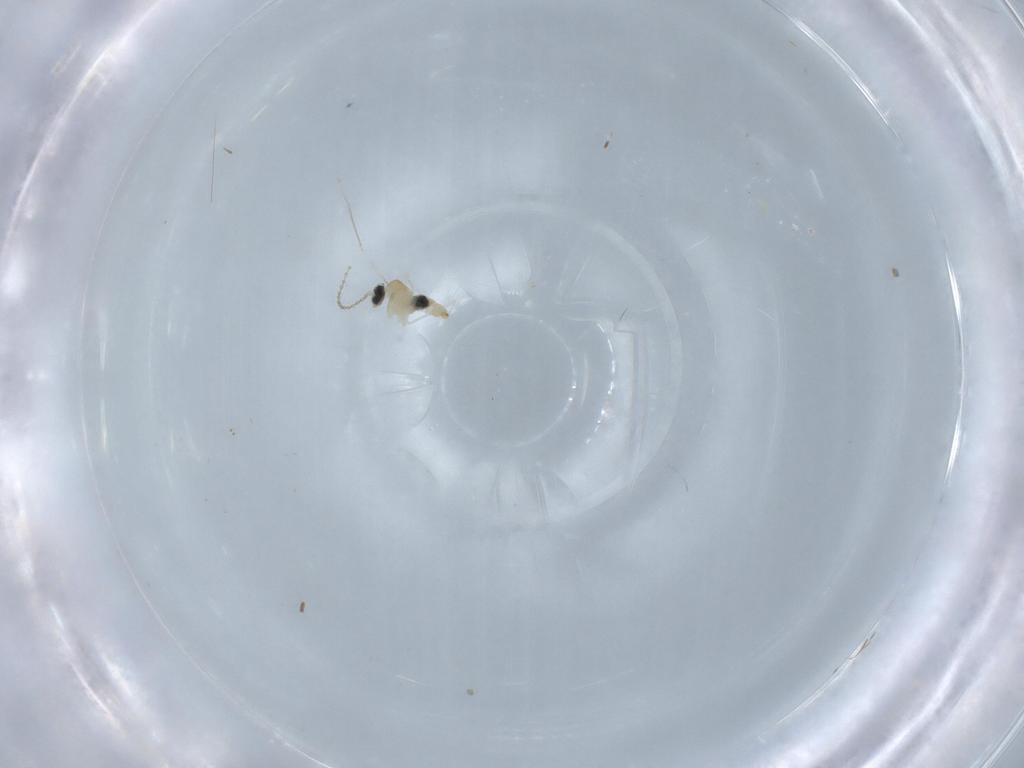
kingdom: Animalia
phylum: Arthropoda
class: Insecta
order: Diptera
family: Cecidomyiidae
